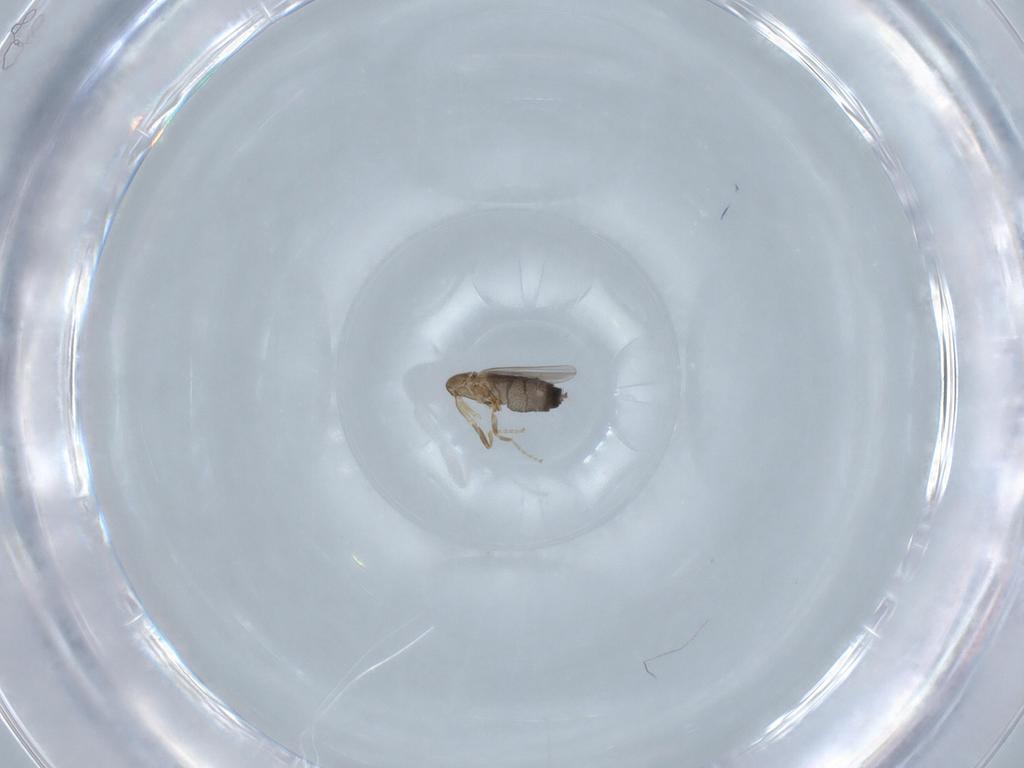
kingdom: Animalia
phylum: Arthropoda
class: Insecta
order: Diptera
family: Phoridae
